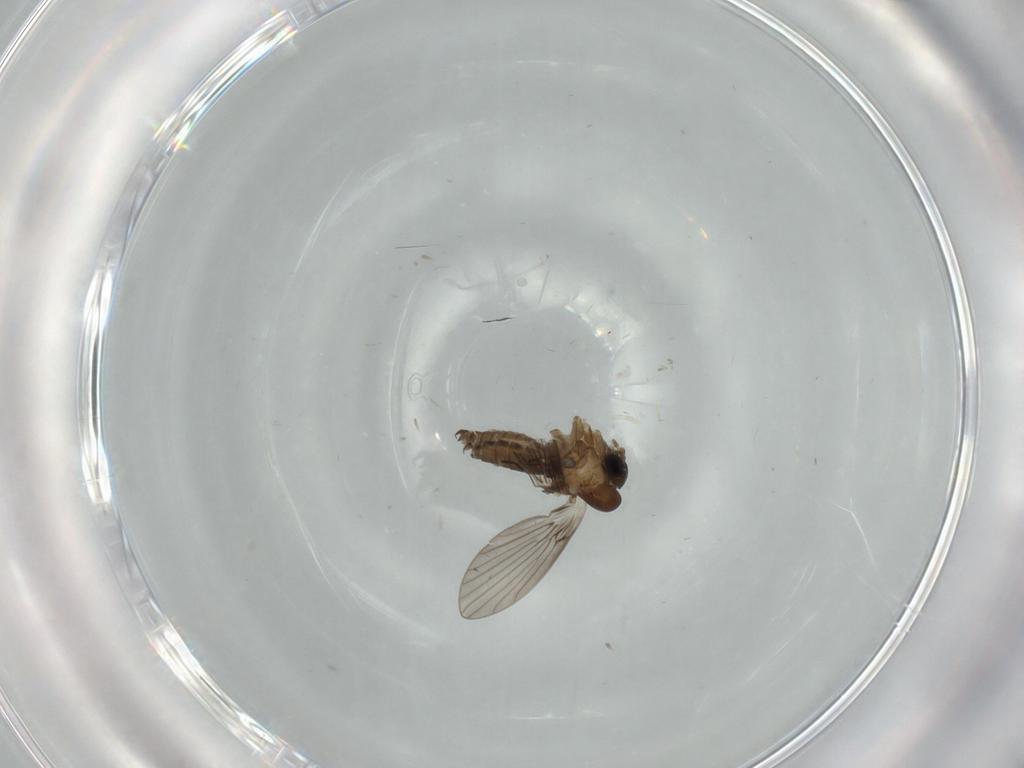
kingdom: Animalia
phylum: Arthropoda
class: Insecta
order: Diptera
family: Psychodidae
